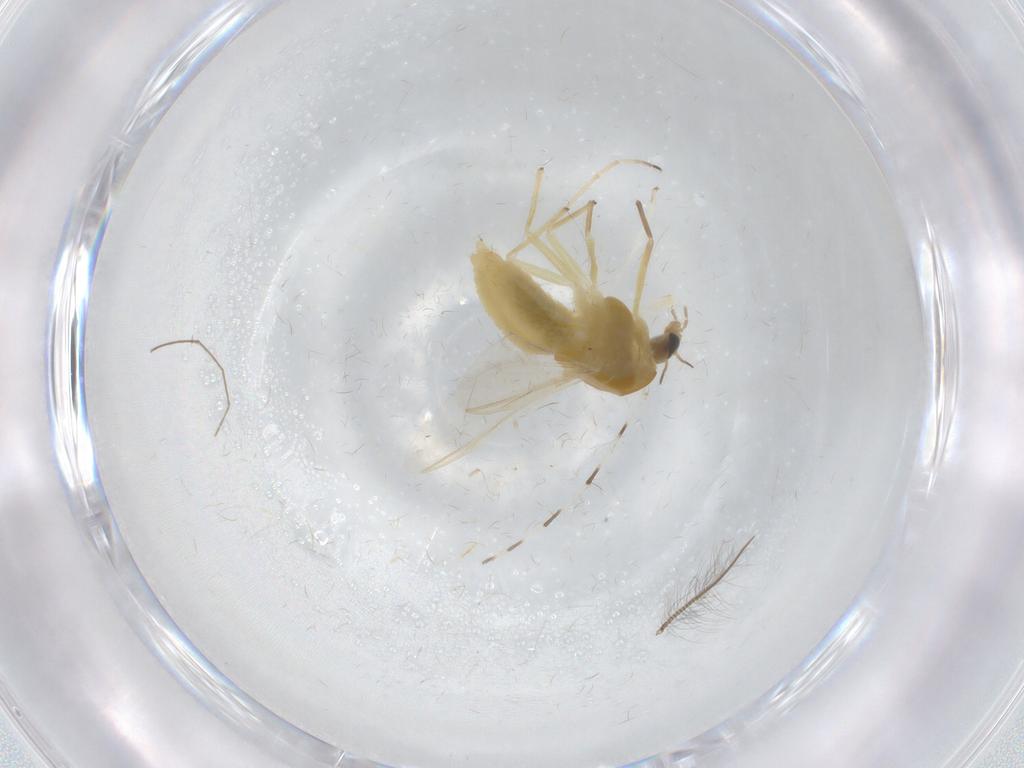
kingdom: Animalia
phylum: Arthropoda
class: Insecta
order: Diptera
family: Chironomidae
